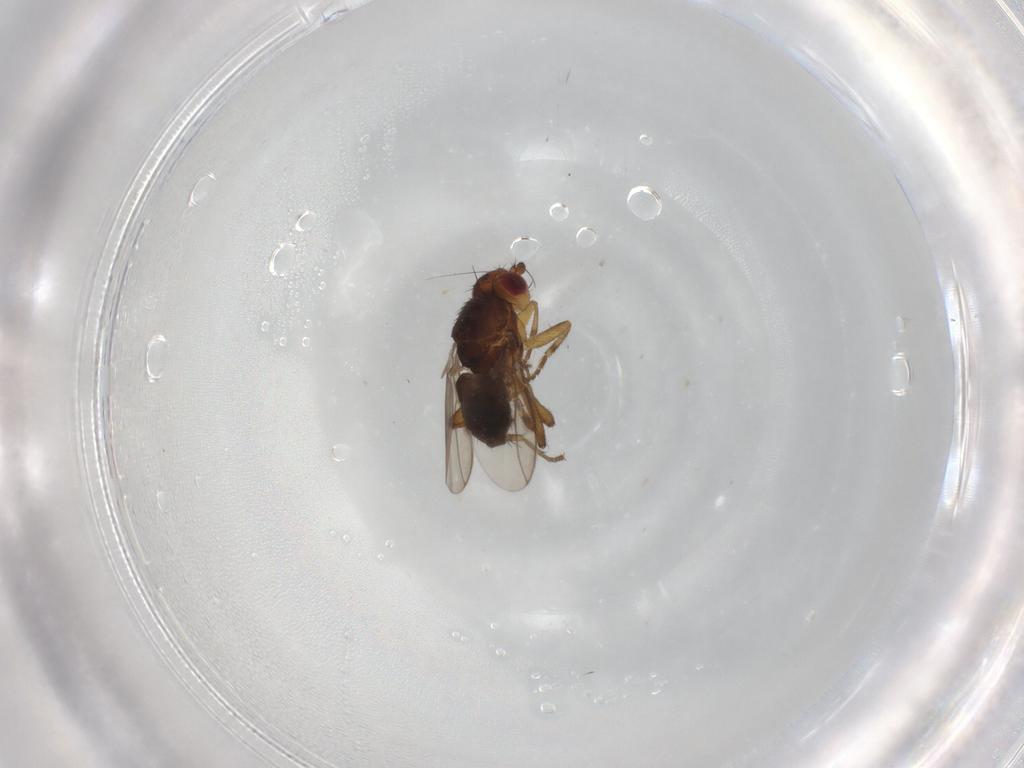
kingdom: Animalia
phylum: Arthropoda
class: Insecta
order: Diptera
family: Sphaeroceridae
